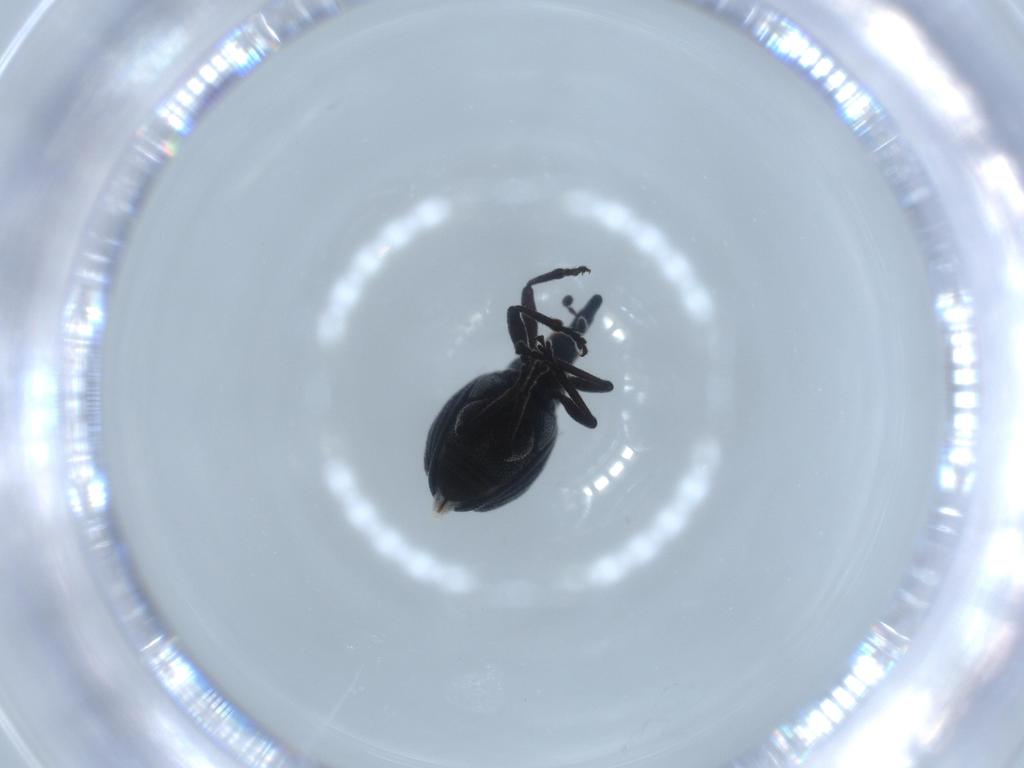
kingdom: Animalia
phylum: Arthropoda
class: Insecta
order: Coleoptera
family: Brentidae
